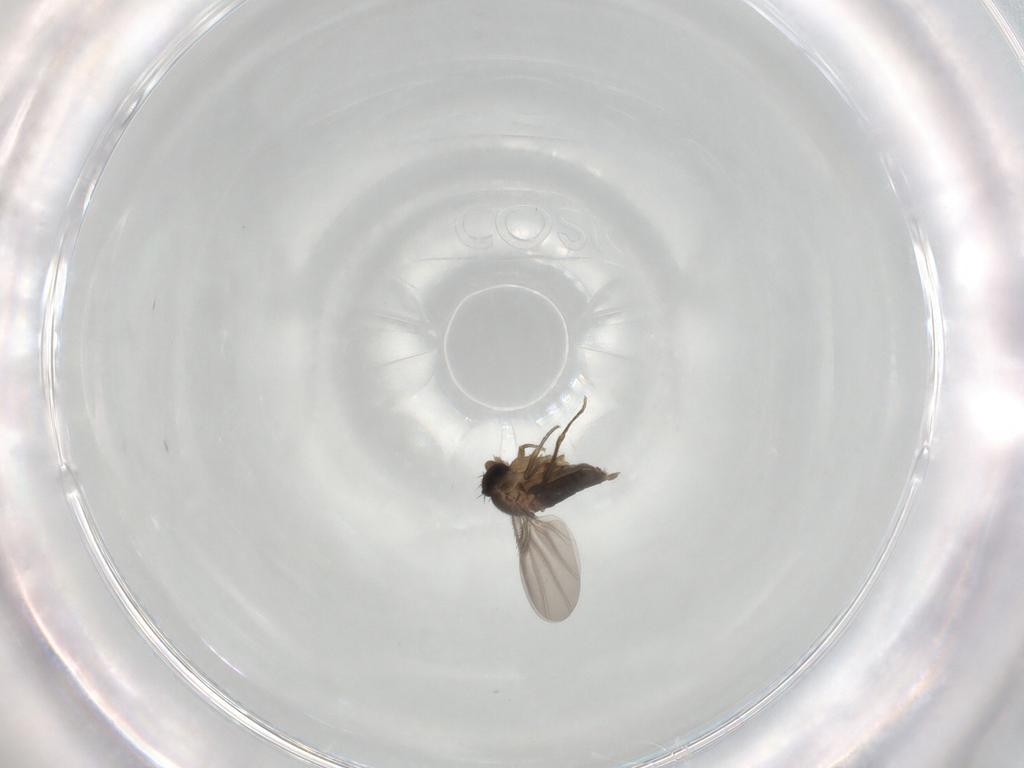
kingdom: Animalia
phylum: Arthropoda
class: Insecta
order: Diptera
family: Phoridae
